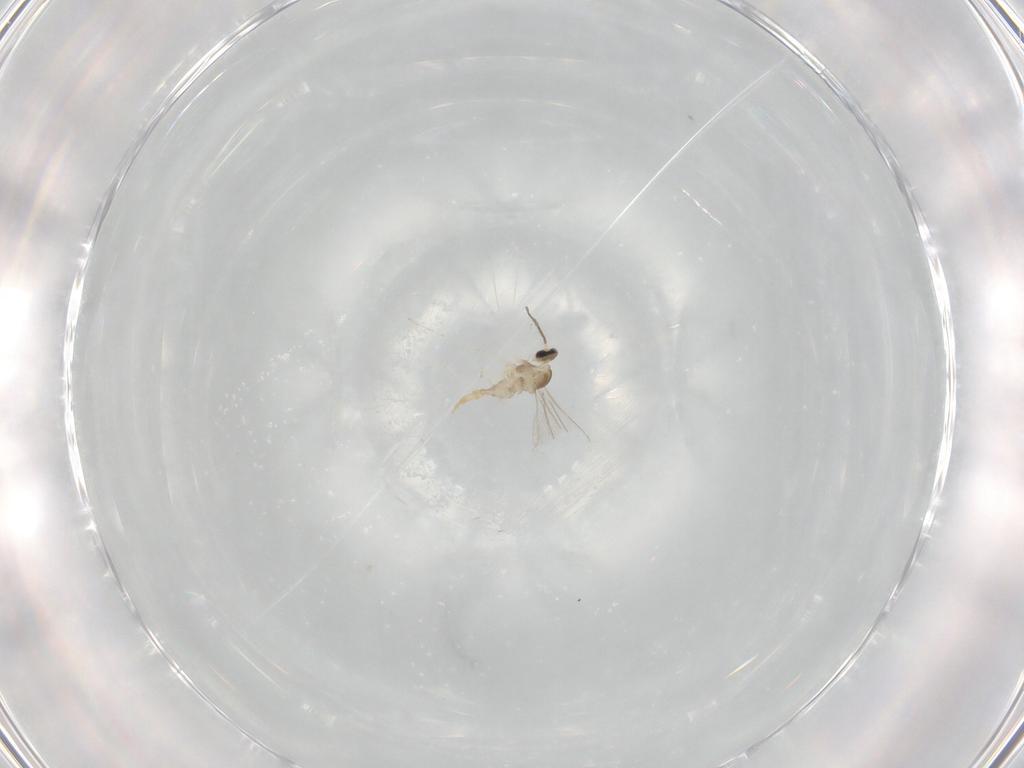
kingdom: Animalia
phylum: Arthropoda
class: Insecta
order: Diptera
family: Cecidomyiidae
